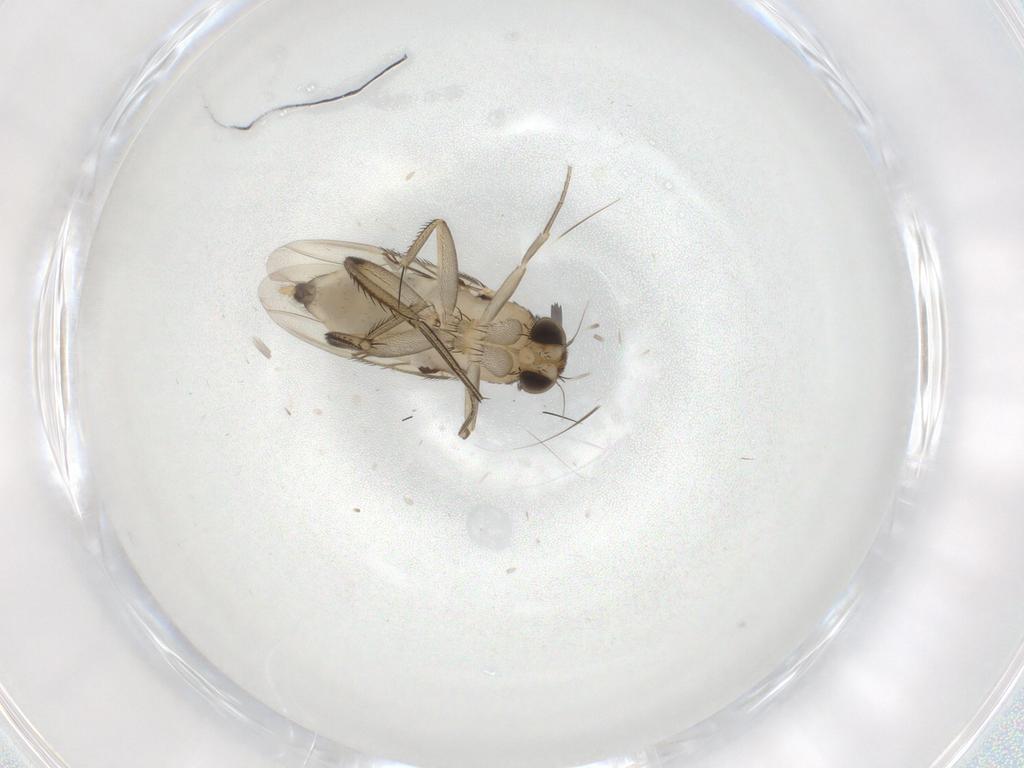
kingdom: Animalia
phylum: Arthropoda
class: Insecta
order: Diptera
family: Phoridae
